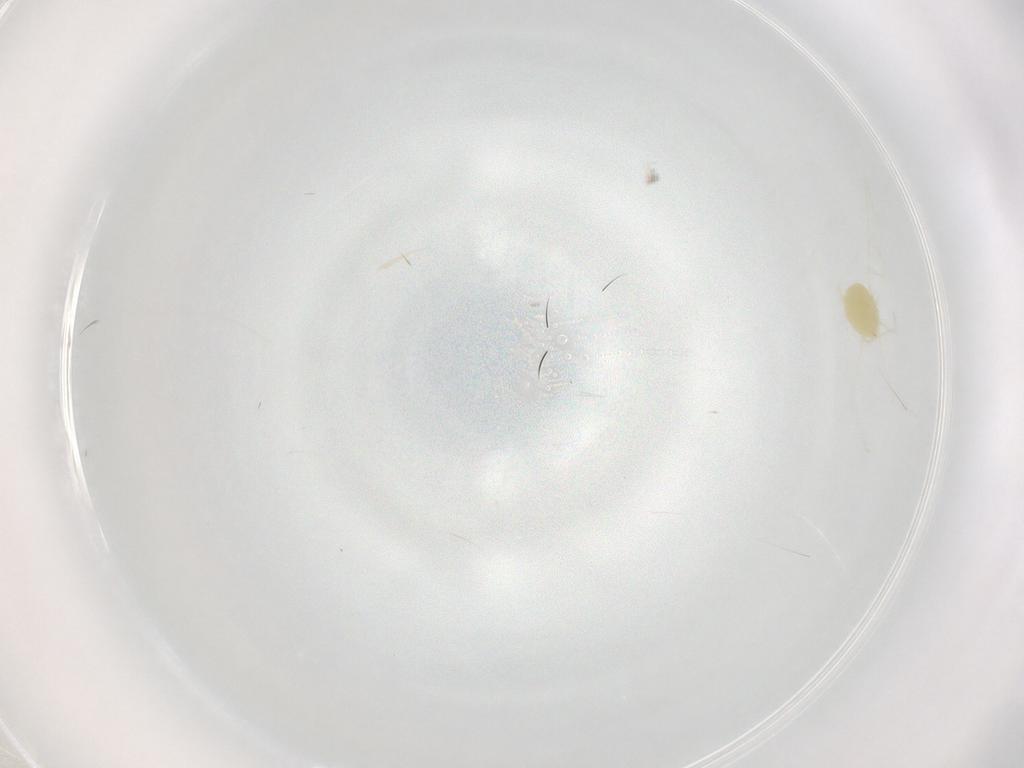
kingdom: Animalia
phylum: Arthropoda
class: Arachnida
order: Trombidiformes
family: Tetranychidae
